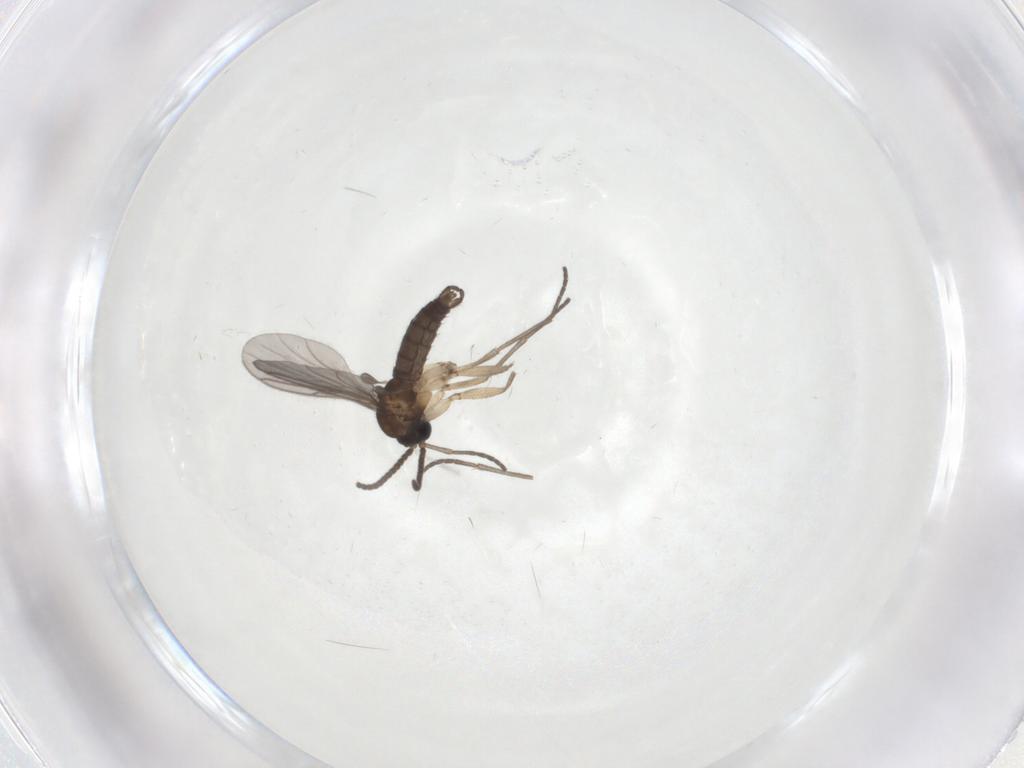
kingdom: Animalia
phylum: Arthropoda
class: Insecta
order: Diptera
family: Sciaridae
